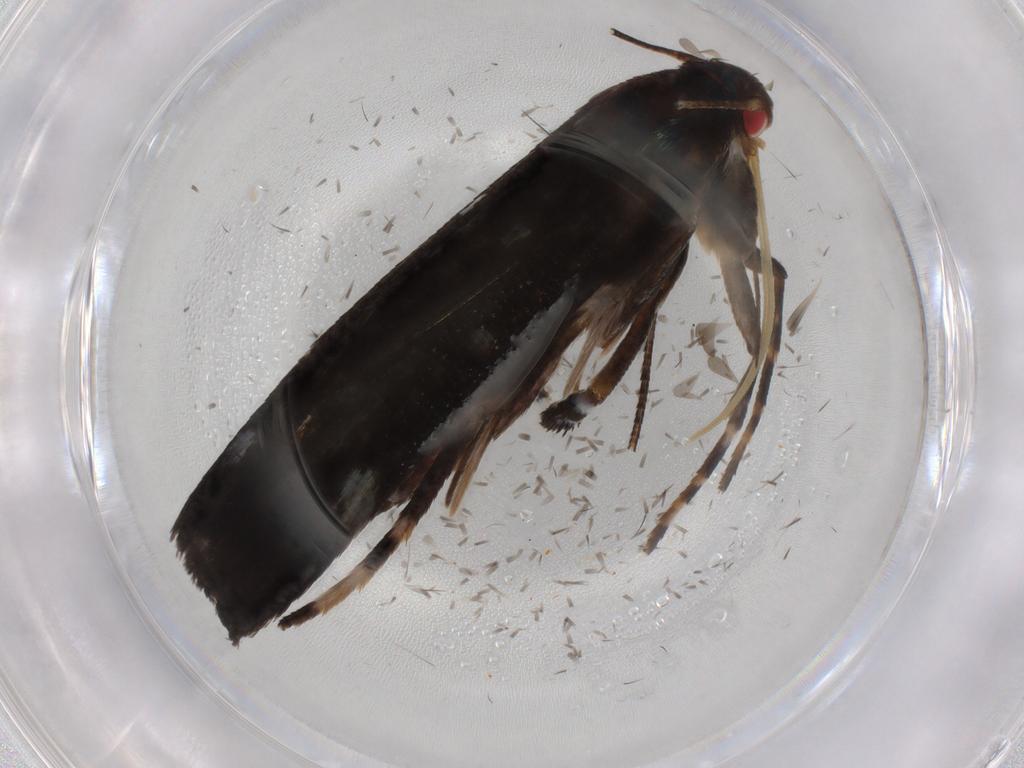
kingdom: Animalia
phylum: Arthropoda
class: Insecta
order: Lepidoptera
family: Gelechiidae
